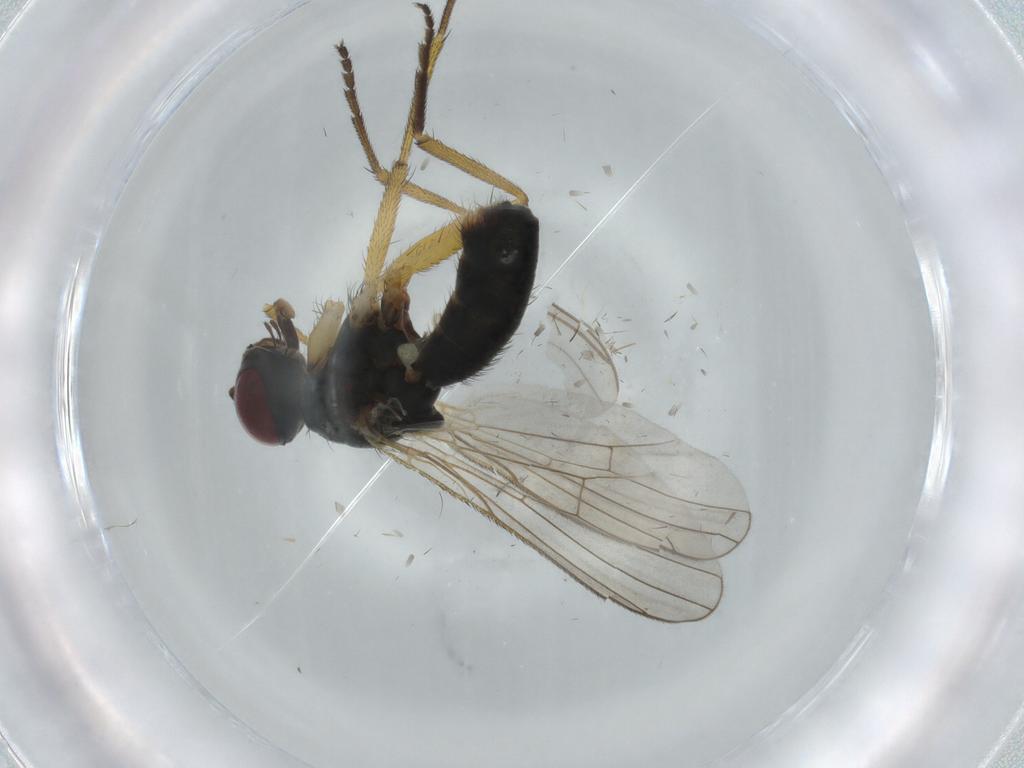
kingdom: Animalia
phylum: Arthropoda
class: Insecta
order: Diptera
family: Muscidae
